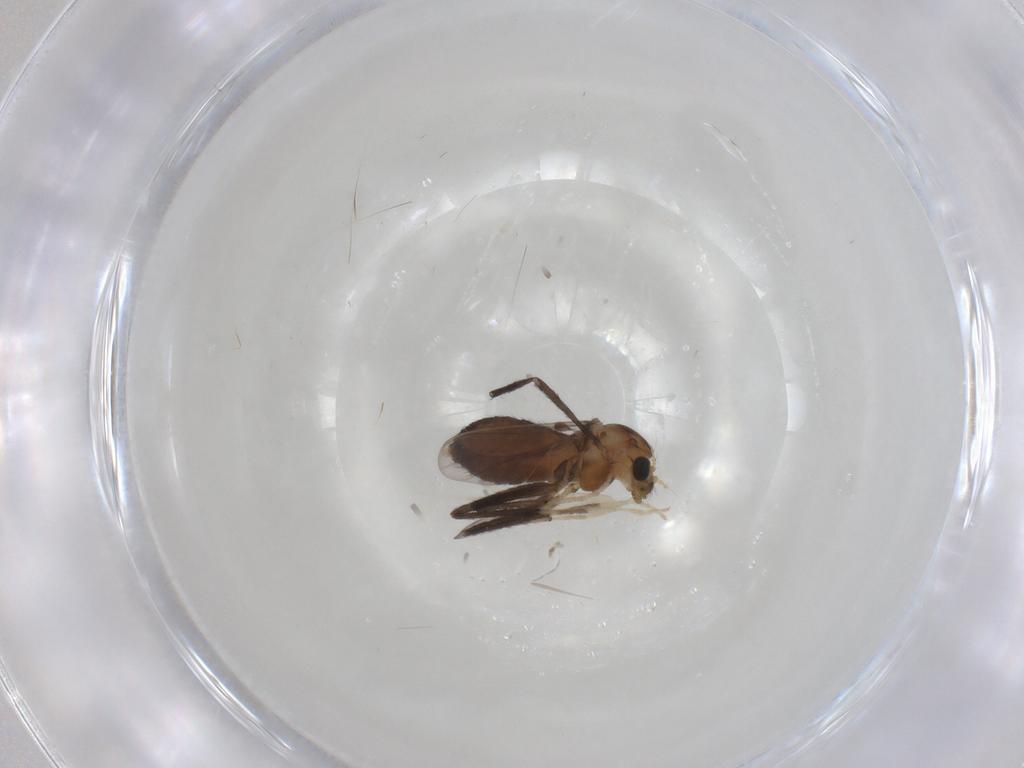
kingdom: Animalia
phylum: Arthropoda
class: Insecta
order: Diptera
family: Chironomidae
